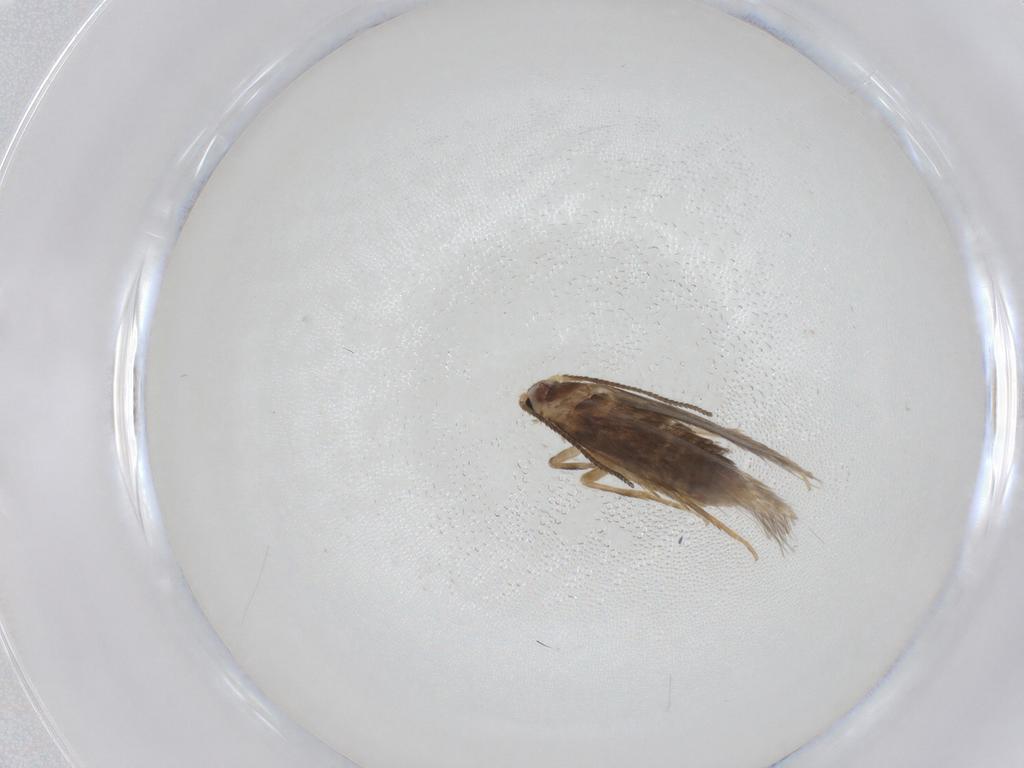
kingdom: Animalia
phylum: Arthropoda
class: Insecta
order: Lepidoptera
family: Nepticulidae
